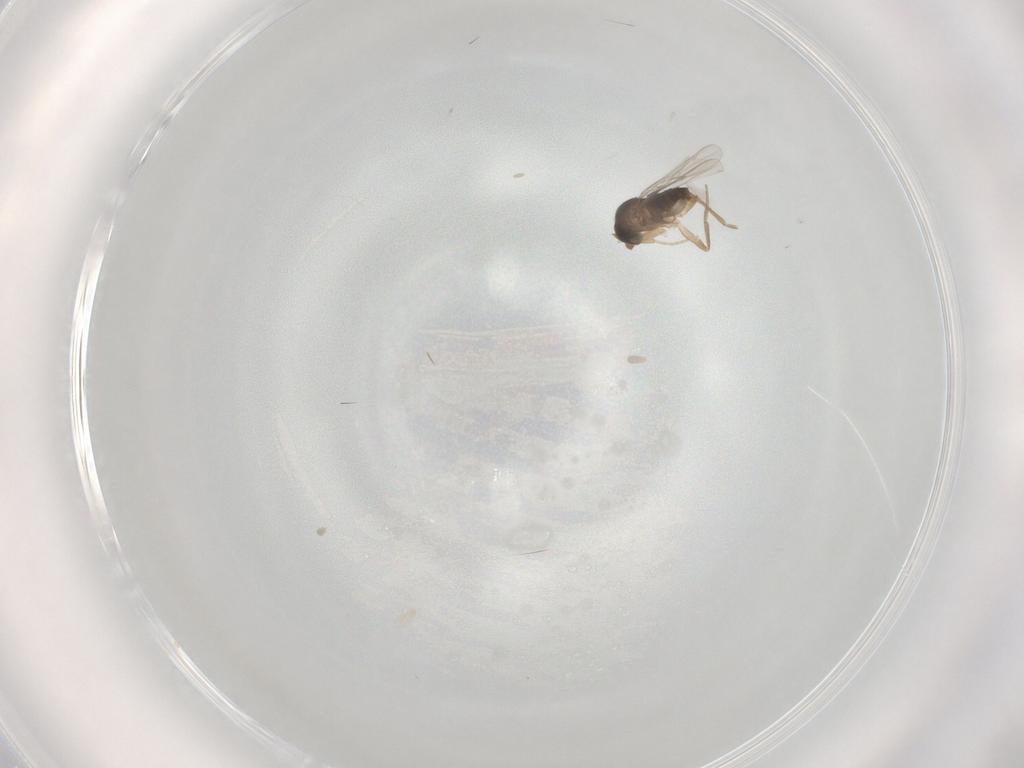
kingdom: Animalia
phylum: Arthropoda
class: Insecta
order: Diptera
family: Phoridae
